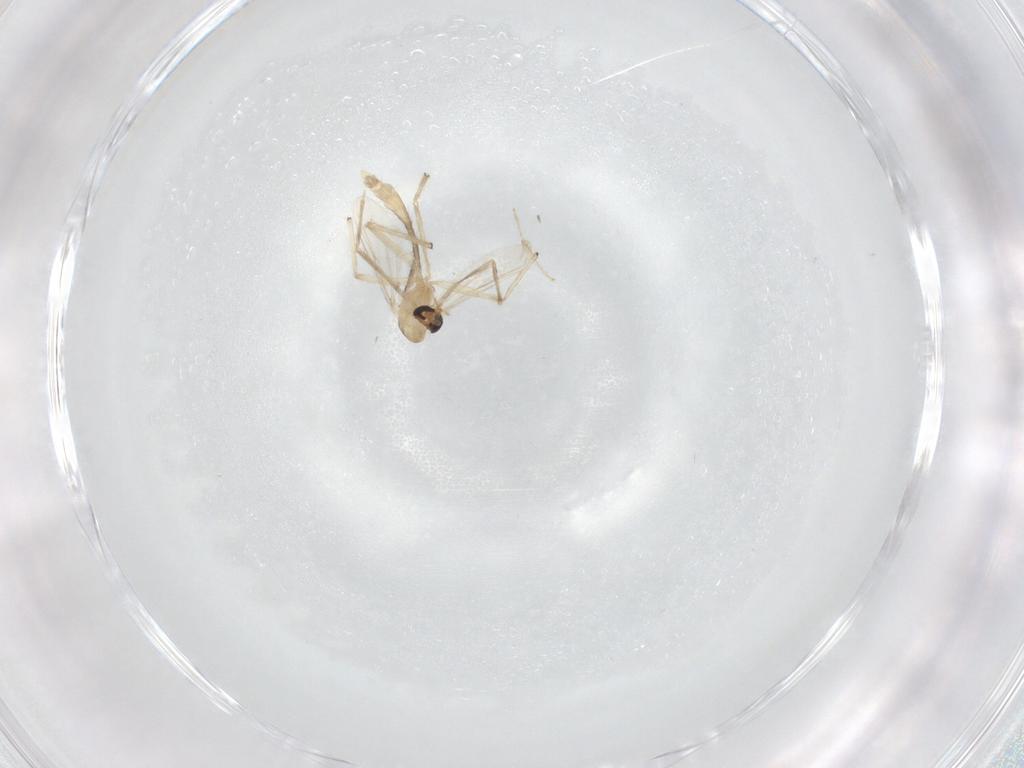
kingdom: Animalia
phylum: Arthropoda
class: Insecta
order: Diptera
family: Chironomidae
